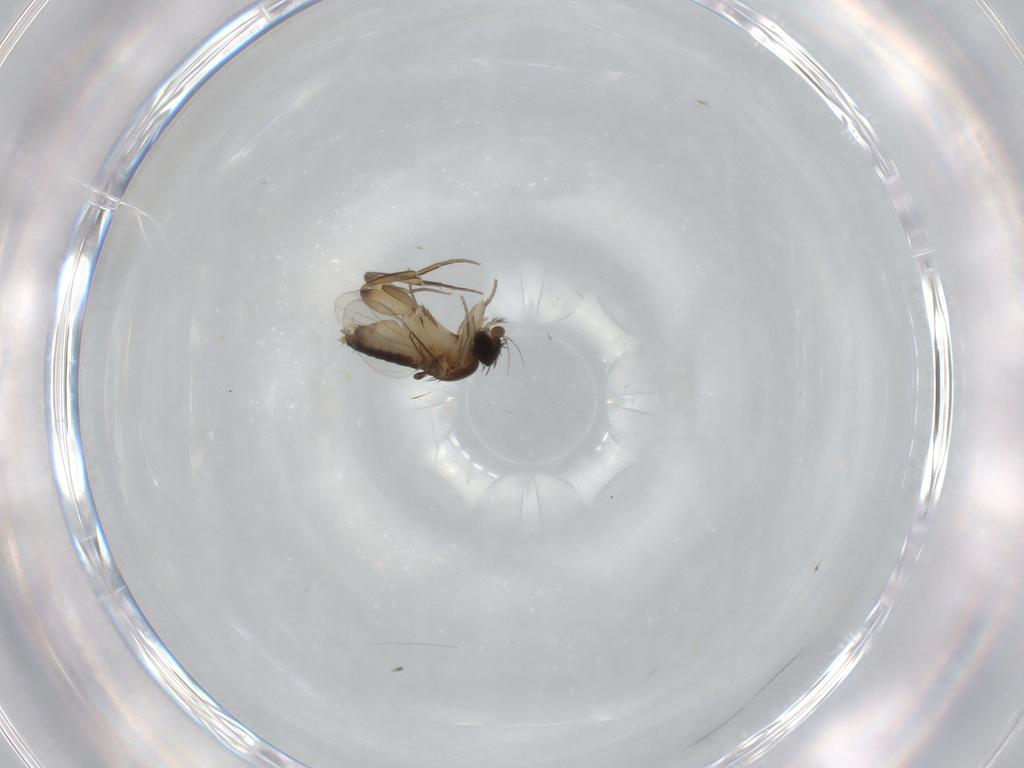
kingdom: Animalia
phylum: Arthropoda
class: Insecta
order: Diptera
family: Phoridae
